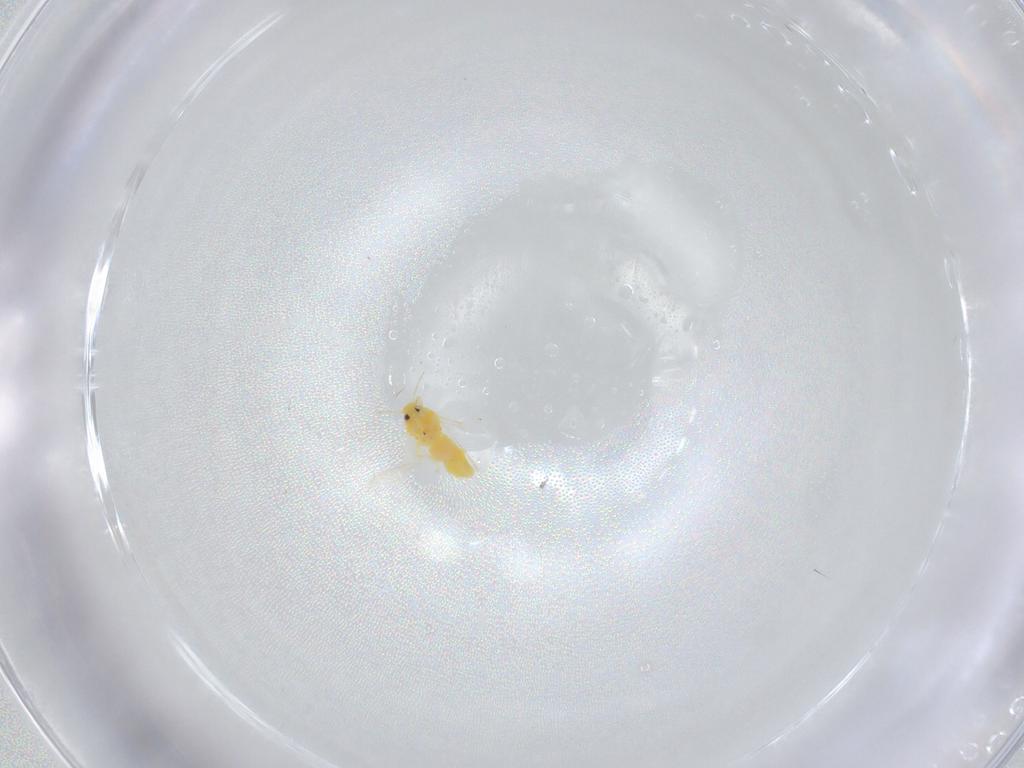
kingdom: Animalia
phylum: Arthropoda
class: Insecta
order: Hemiptera
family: Aleyrodidae
